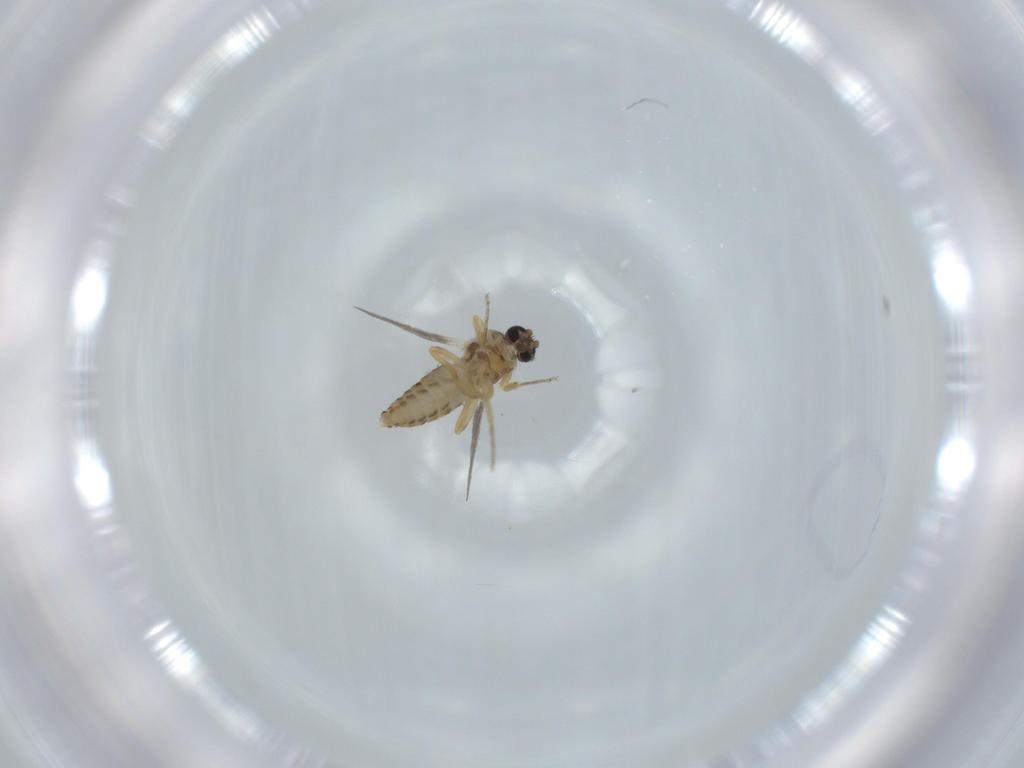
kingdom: Animalia
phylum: Arthropoda
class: Insecta
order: Diptera
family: Ceratopogonidae
